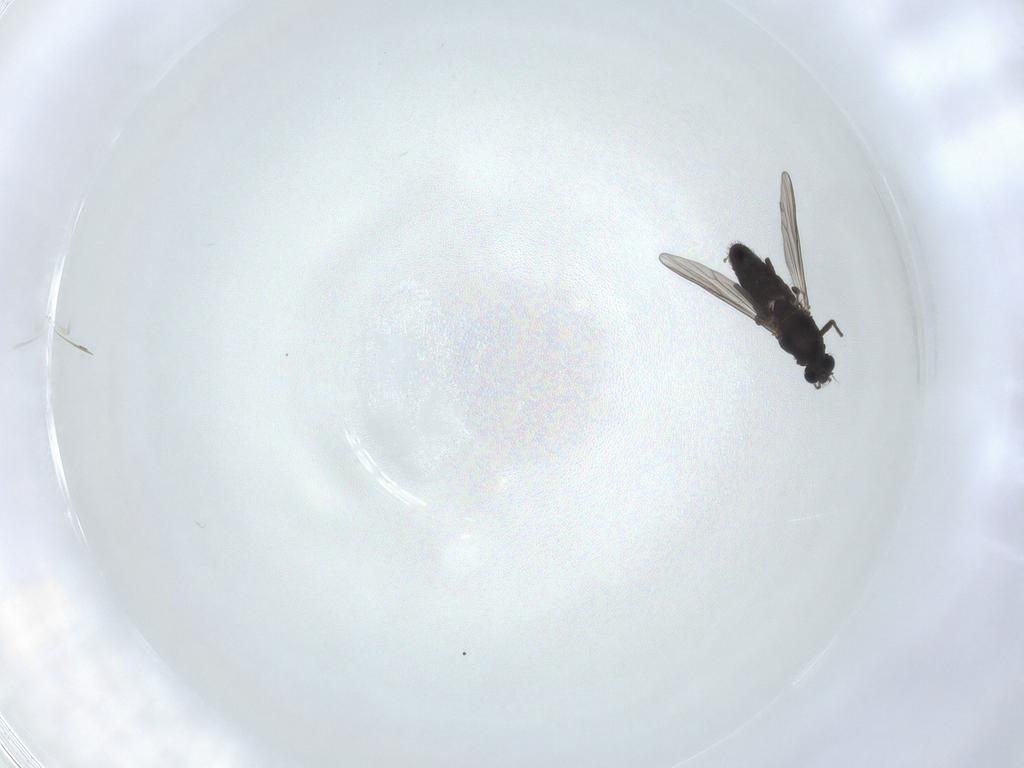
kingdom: Animalia
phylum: Arthropoda
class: Insecta
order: Diptera
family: Chironomidae
